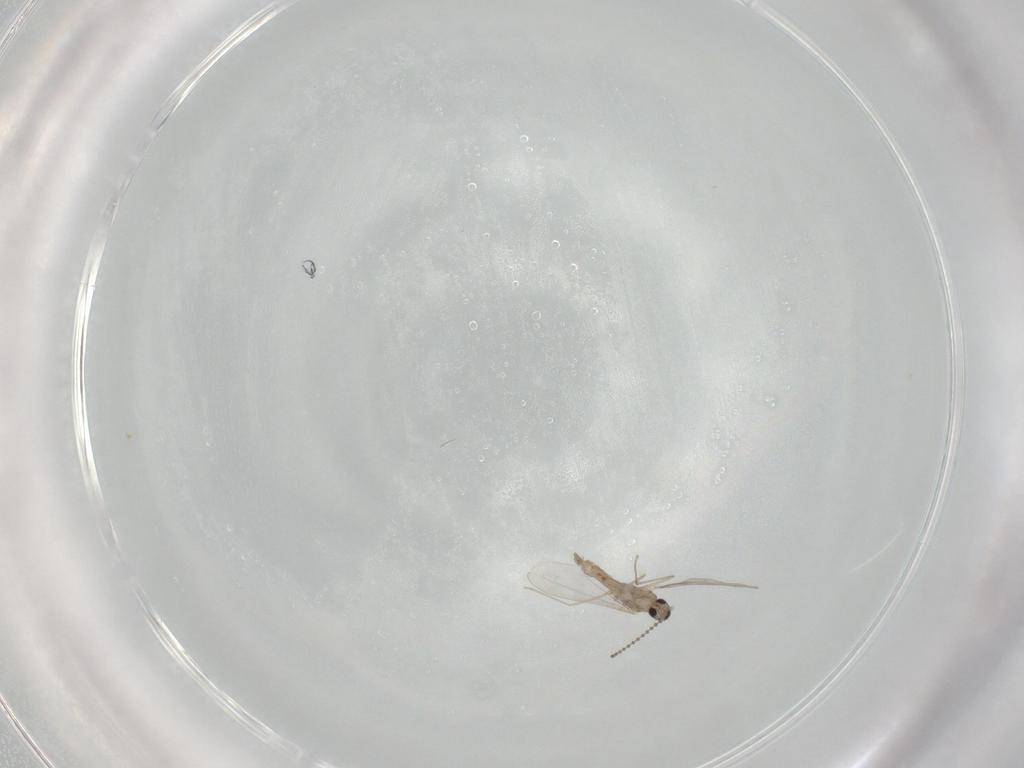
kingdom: Animalia
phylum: Arthropoda
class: Insecta
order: Diptera
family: Cecidomyiidae
